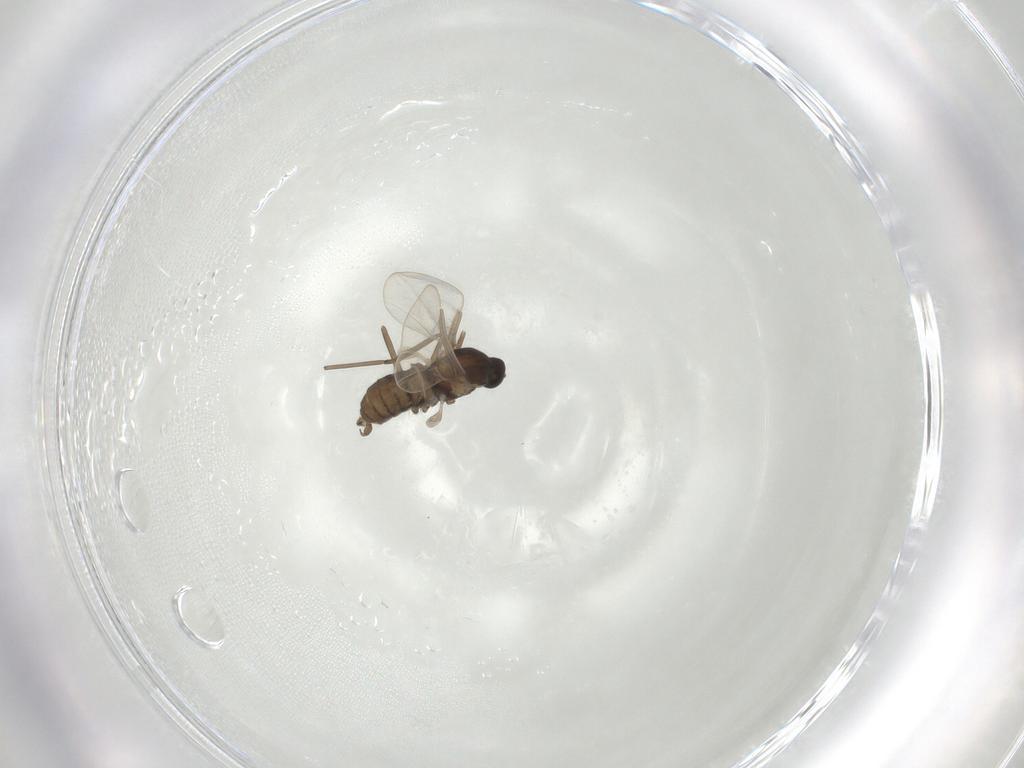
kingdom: Animalia
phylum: Arthropoda
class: Insecta
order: Diptera
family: Cecidomyiidae
